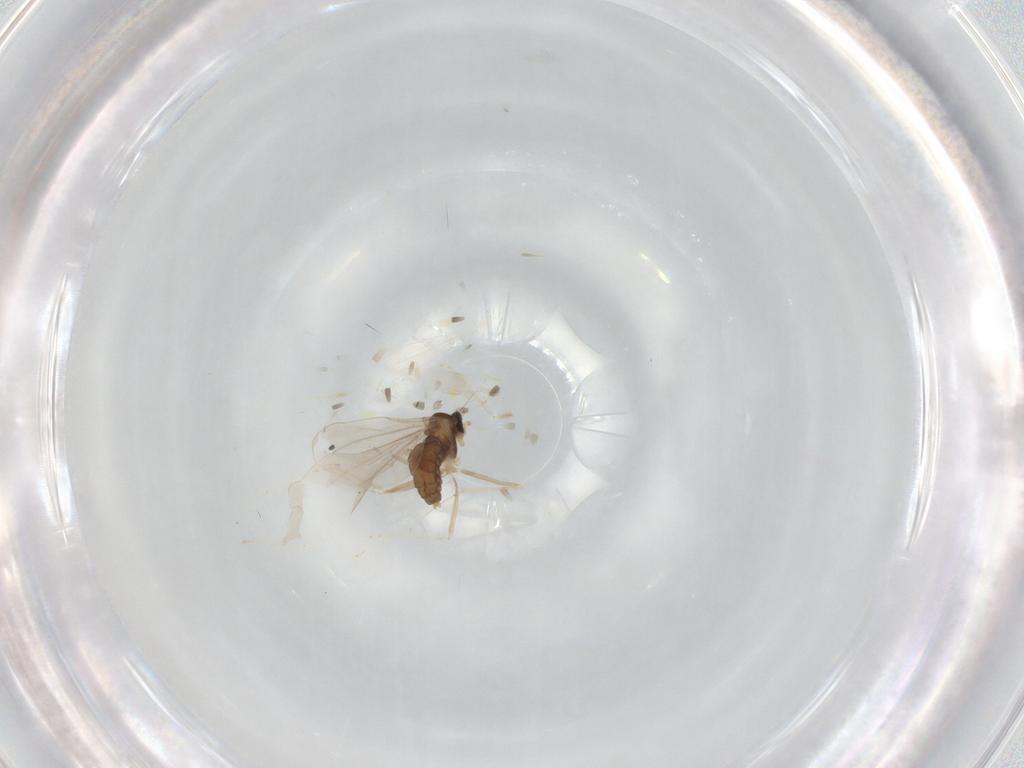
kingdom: Animalia
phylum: Arthropoda
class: Insecta
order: Diptera
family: Cecidomyiidae
